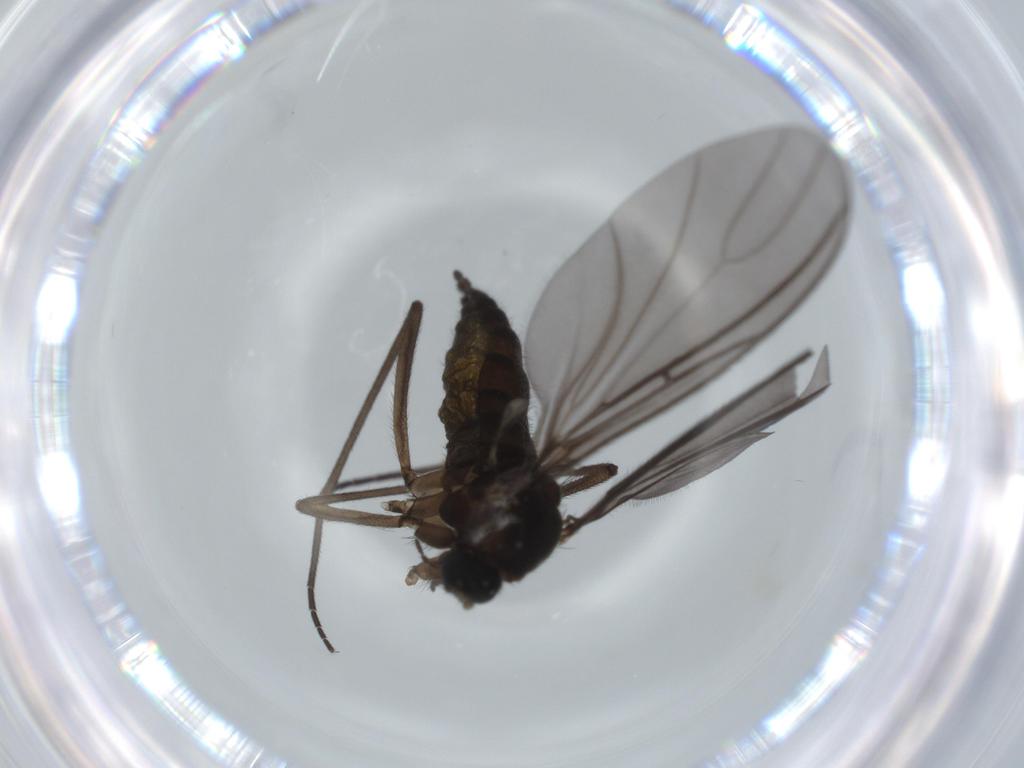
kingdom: Animalia
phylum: Arthropoda
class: Insecta
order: Diptera
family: Sciaridae
